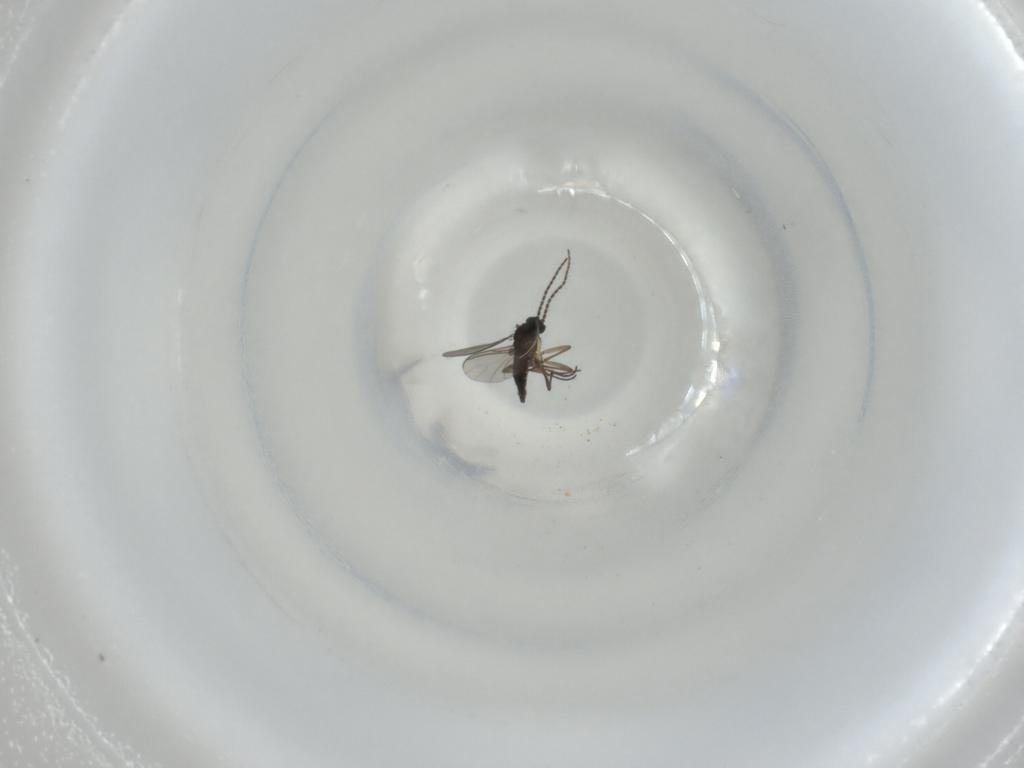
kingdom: Animalia
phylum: Arthropoda
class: Insecta
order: Diptera
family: Sciaridae
